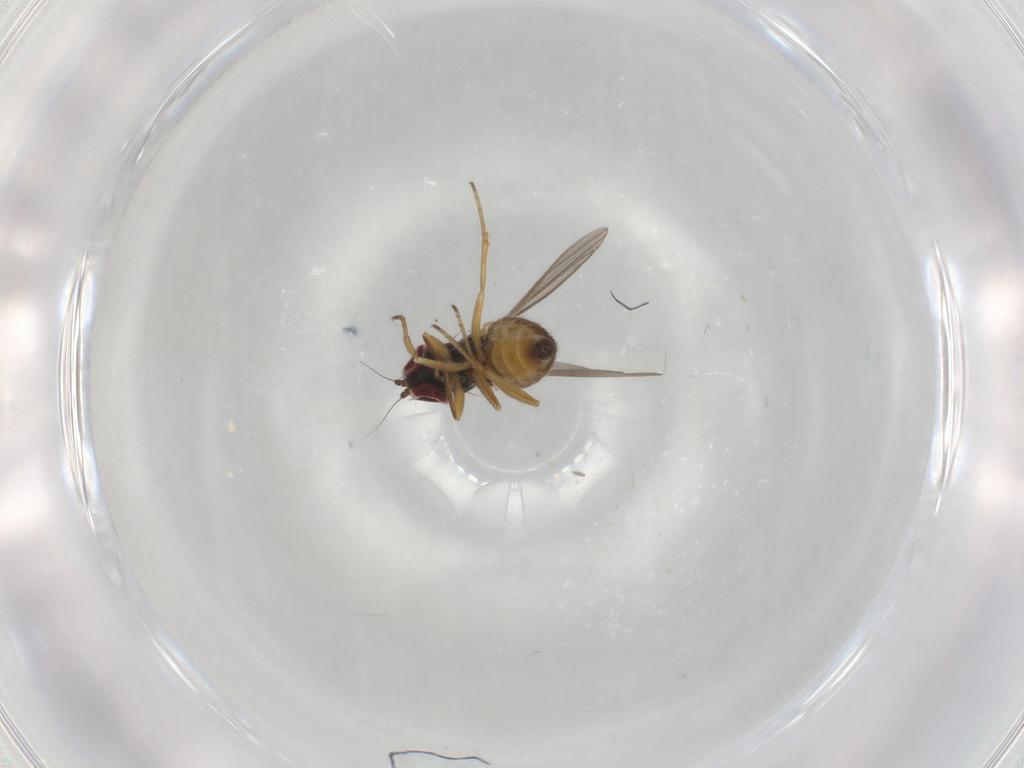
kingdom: Animalia
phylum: Arthropoda
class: Insecta
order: Diptera
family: Dolichopodidae
